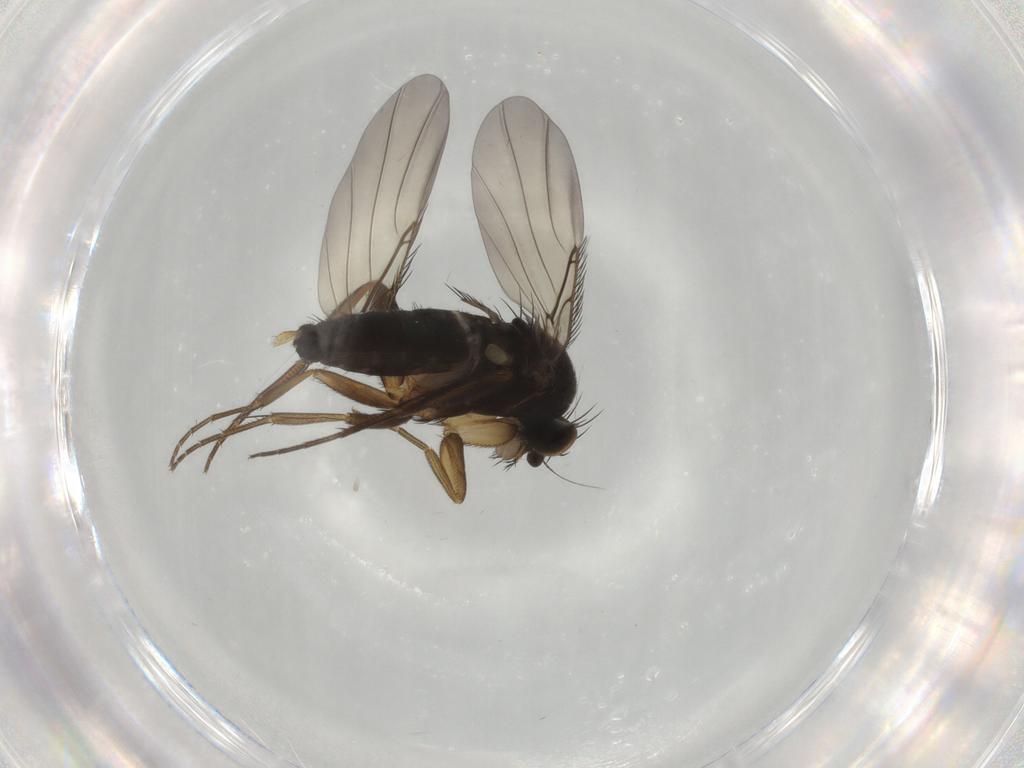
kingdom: Animalia
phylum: Arthropoda
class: Insecta
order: Diptera
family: Phoridae
